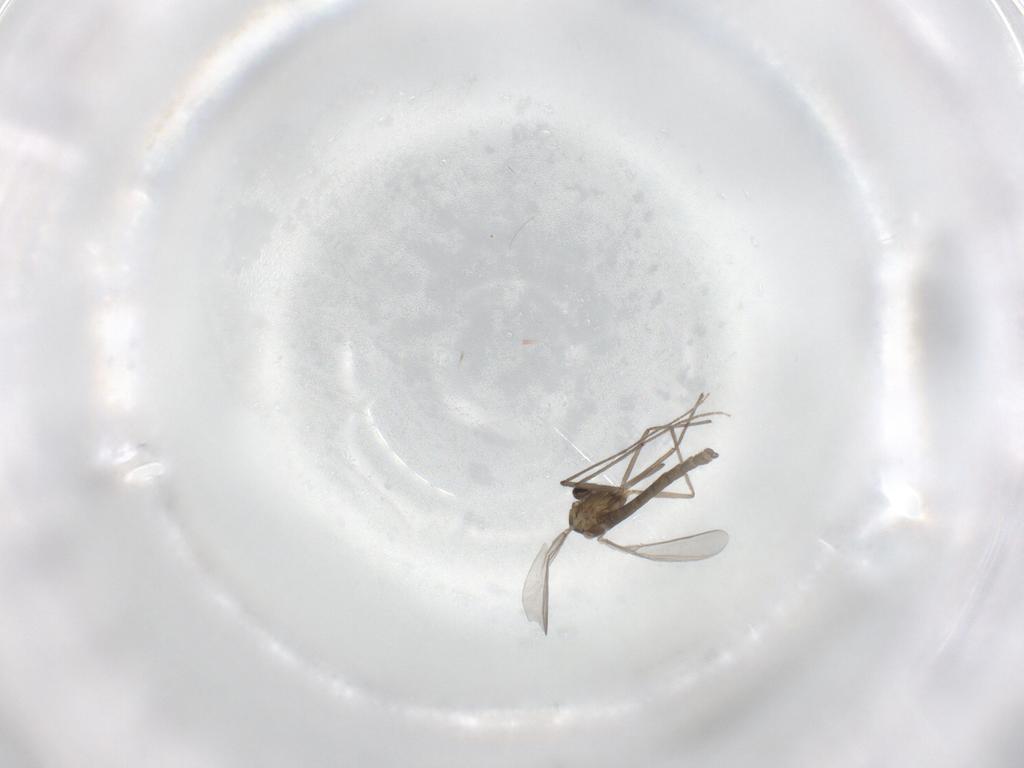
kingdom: Animalia
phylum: Arthropoda
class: Insecta
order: Diptera
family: Chironomidae
